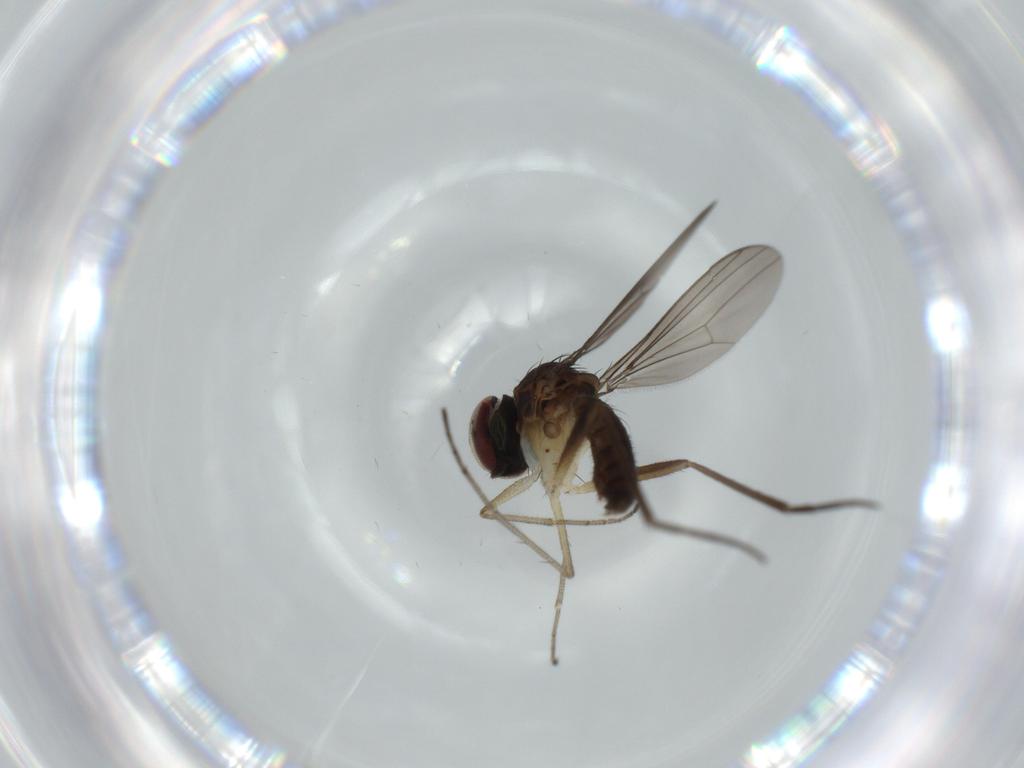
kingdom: Animalia
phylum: Arthropoda
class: Insecta
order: Diptera
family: Dolichopodidae
